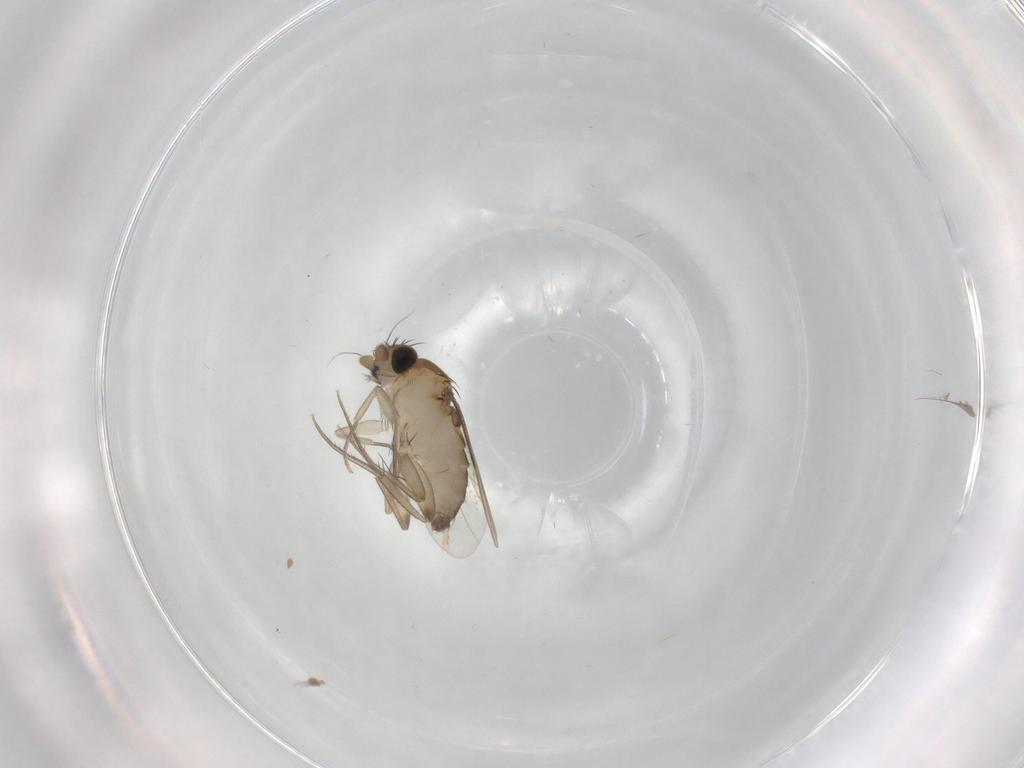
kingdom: Animalia
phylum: Arthropoda
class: Insecta
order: Diptera
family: Phoridae
